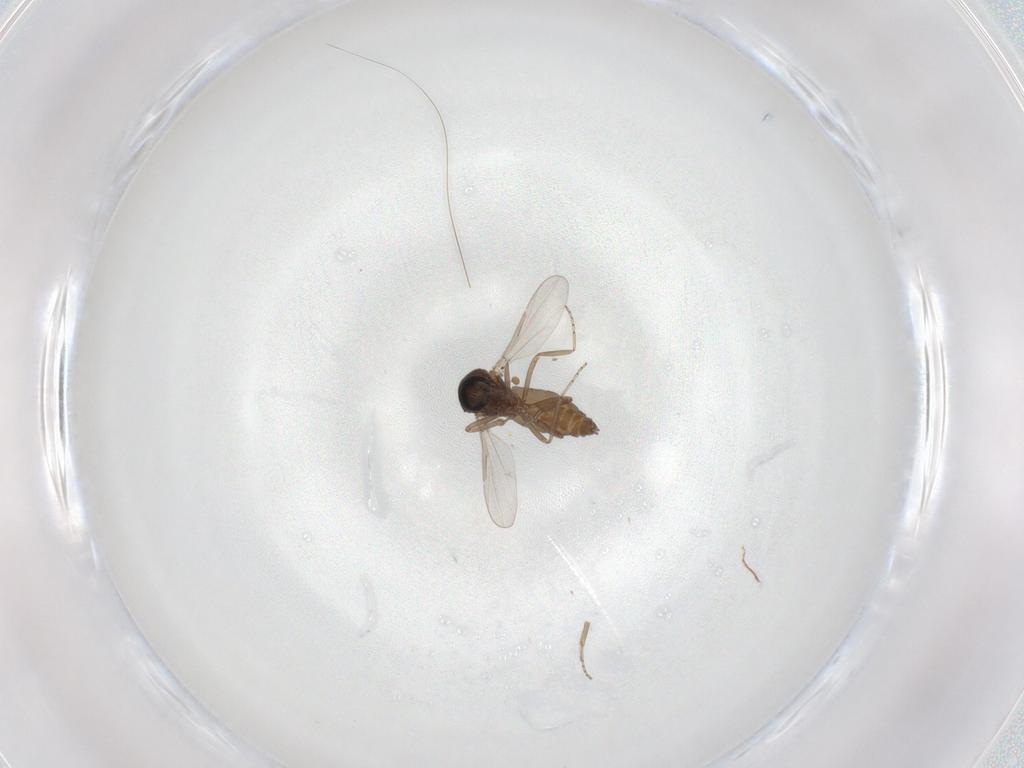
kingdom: Animalia
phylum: Arthropoda
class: Insecta
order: Diptera
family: Ceratopogonidae
